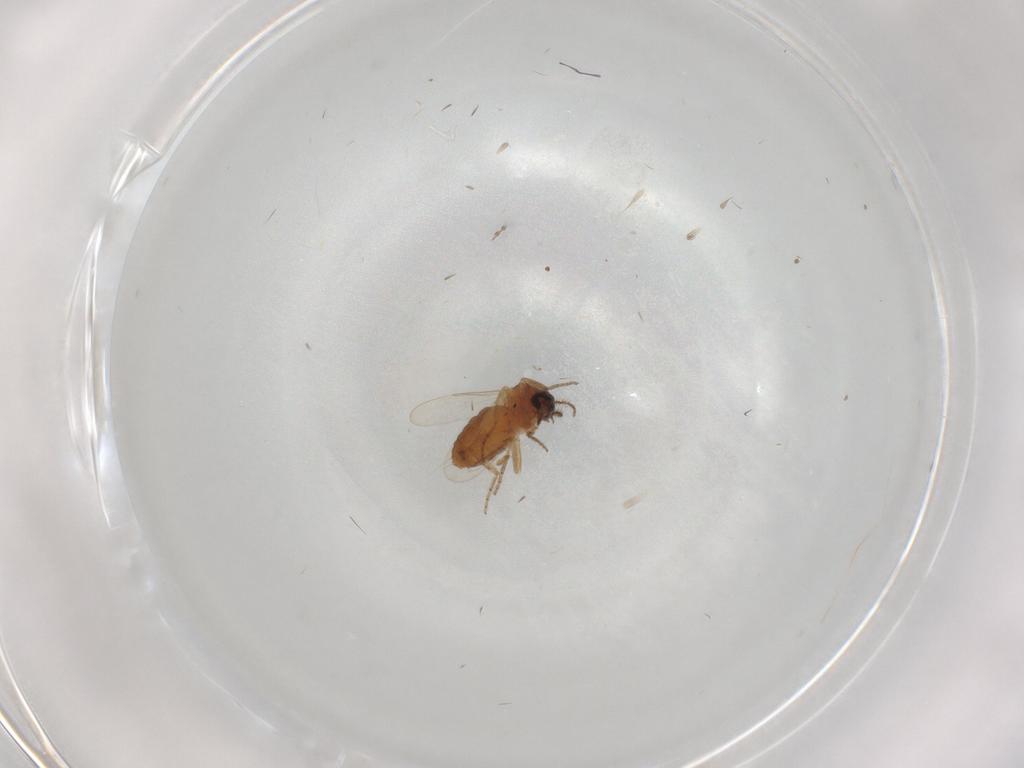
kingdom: Animalia
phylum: Arthropoda
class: Insecta
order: Diptera
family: Ceratopogonidae
